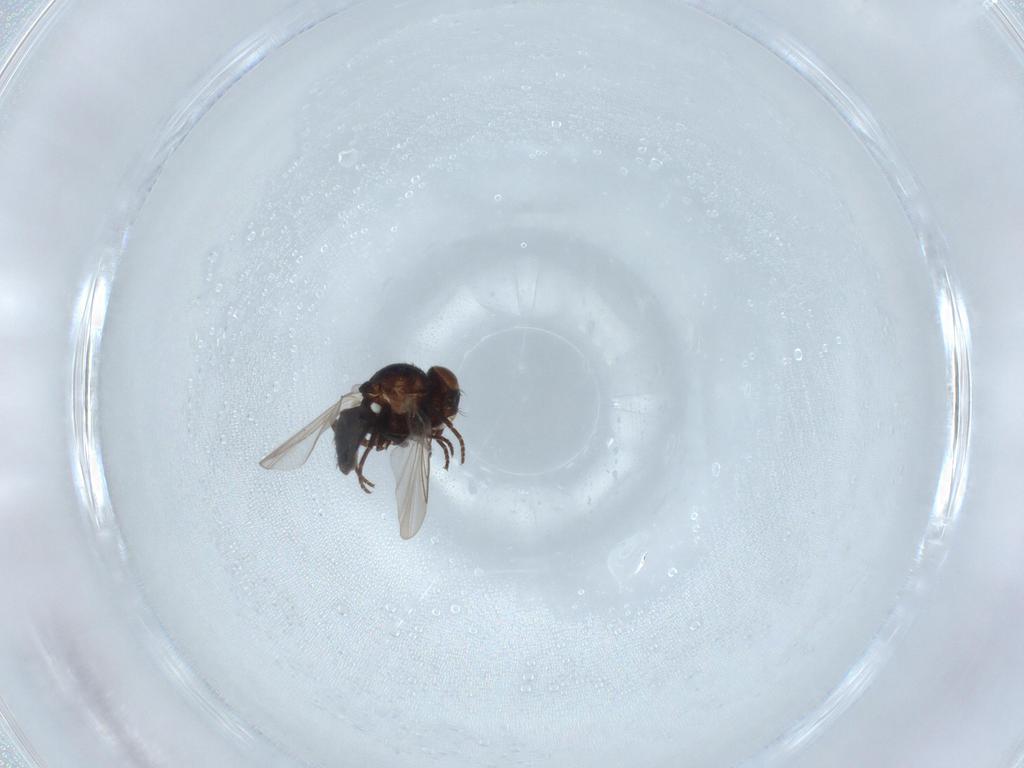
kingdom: Animalia
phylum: Arthropoda
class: Insecta
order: Diptera
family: Agromyzidae
